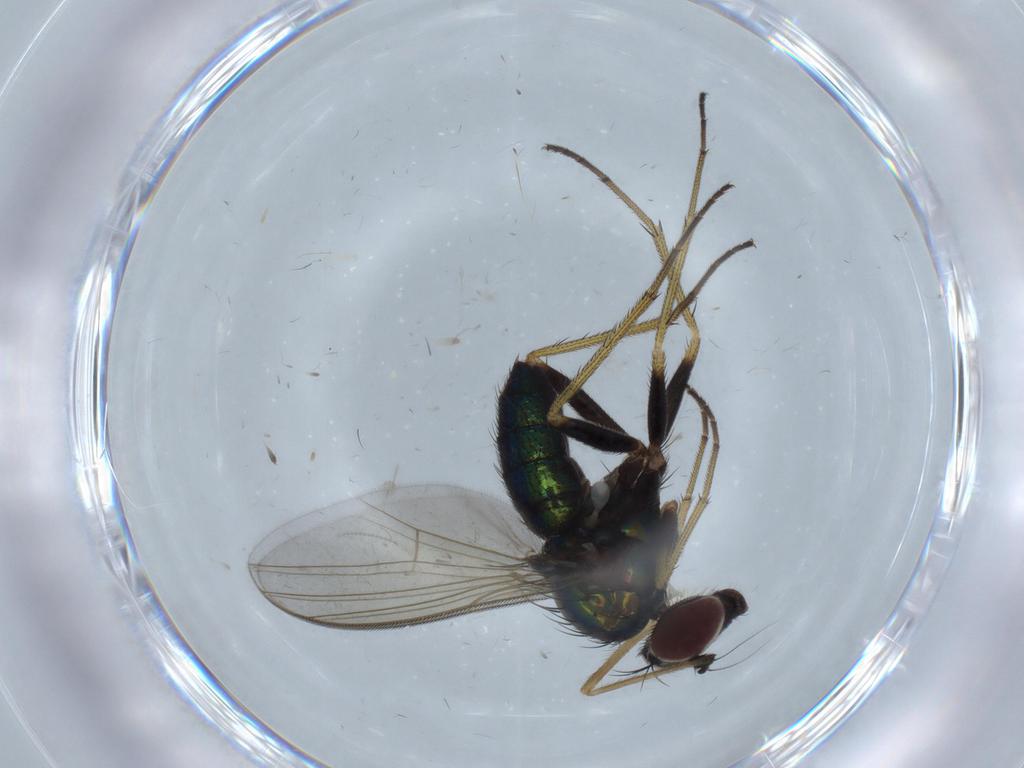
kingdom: Animalia
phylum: Arthropoda
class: Insecta
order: Diptera
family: Dolichopodidae
